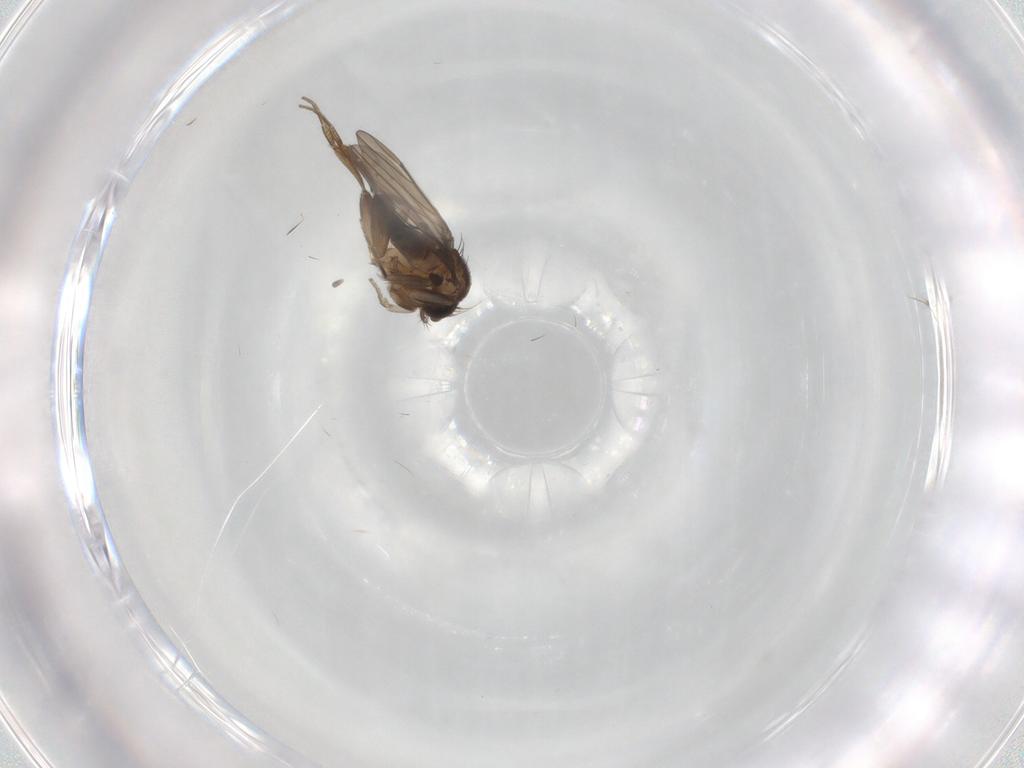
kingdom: Animalia
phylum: Arthropoda
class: Insecta
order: Diptera
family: Phoridae
